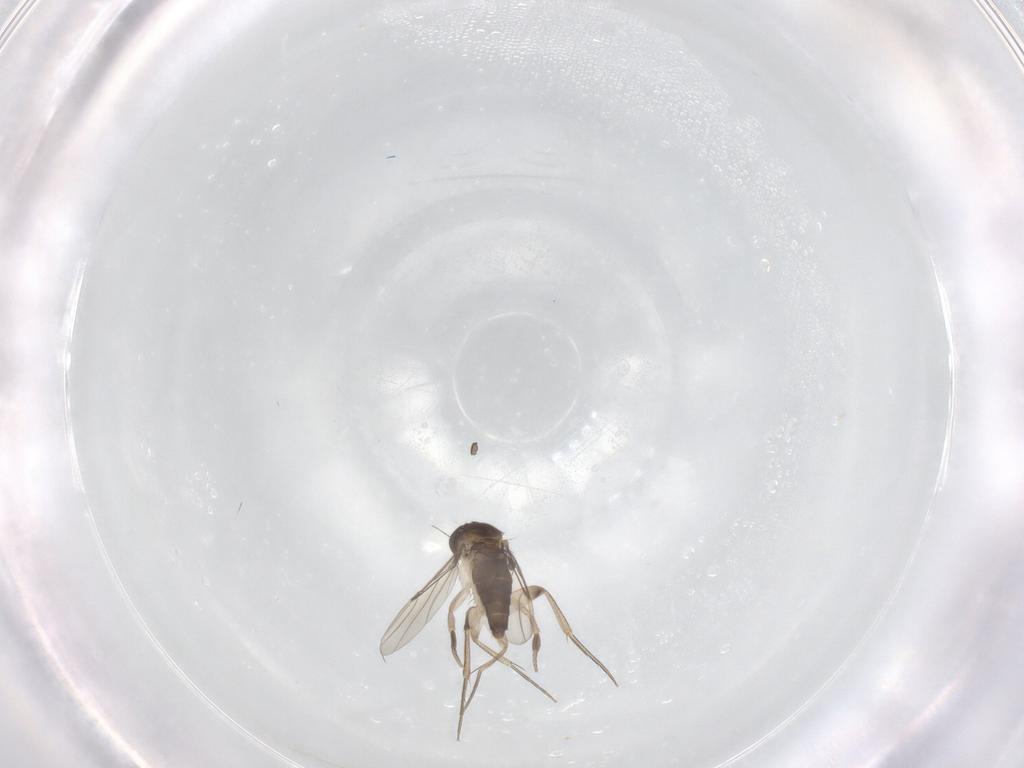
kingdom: Animalia
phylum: Arthropoda
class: Insecta
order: Diptera
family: Phoridae
